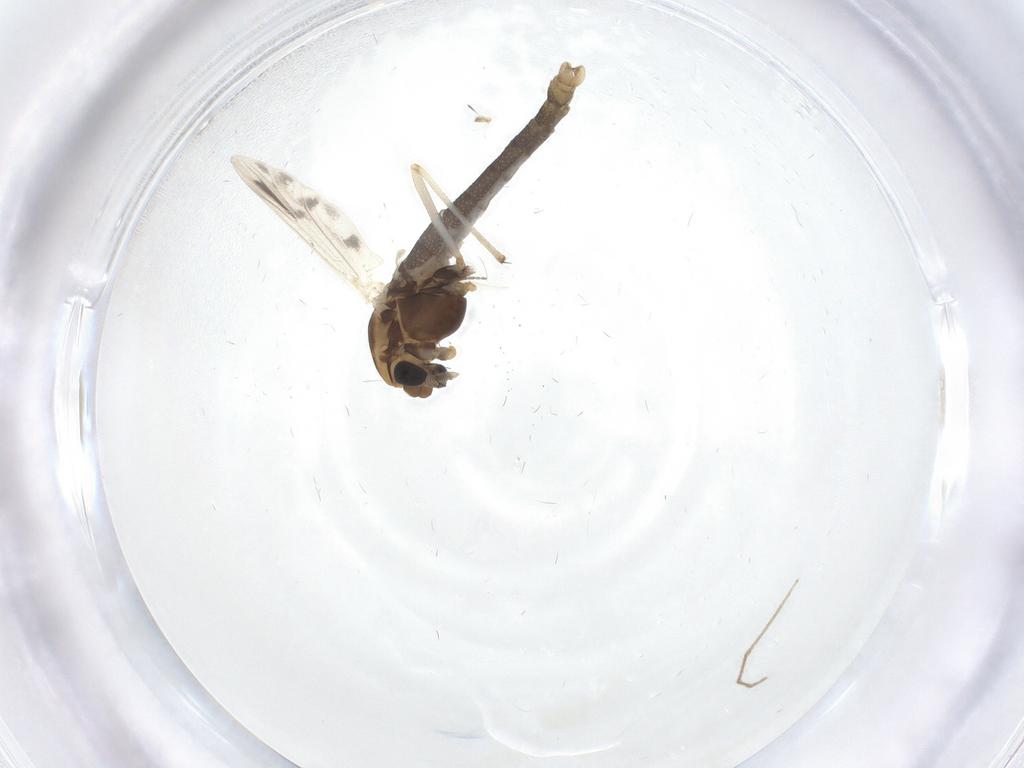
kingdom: Animalia
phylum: Arthropoda
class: Insecta
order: Diptera
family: Chironomidae
